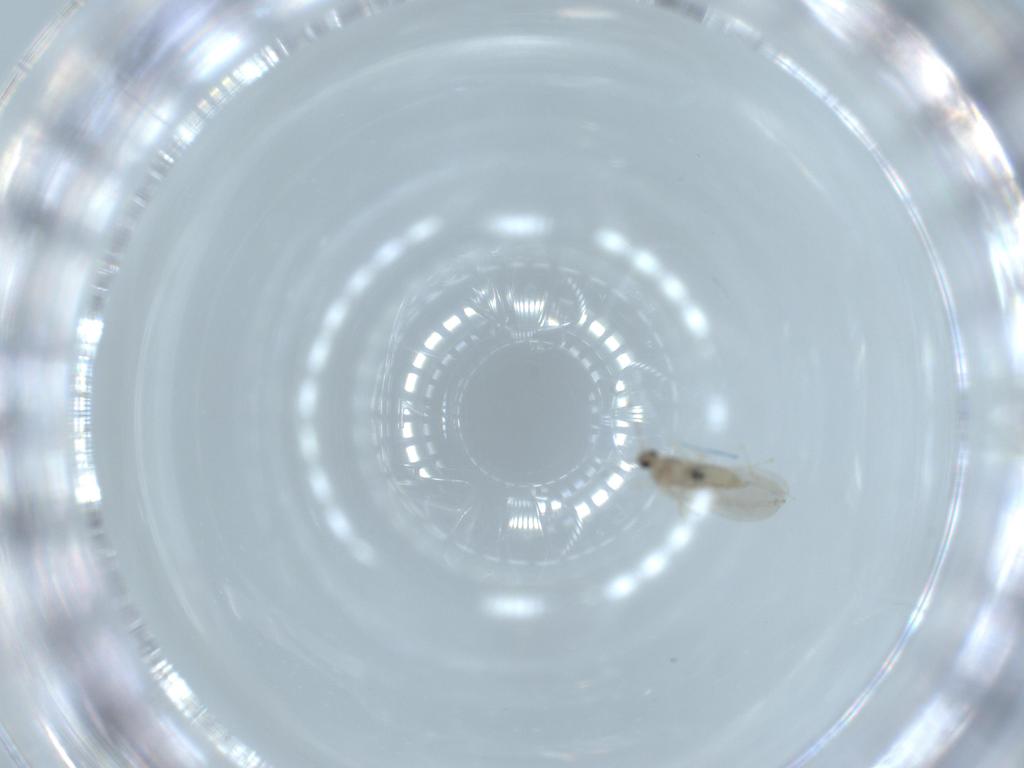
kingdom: Animalia
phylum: Arthropoda
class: Insecta
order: Diptera
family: Cecidomyiidae
